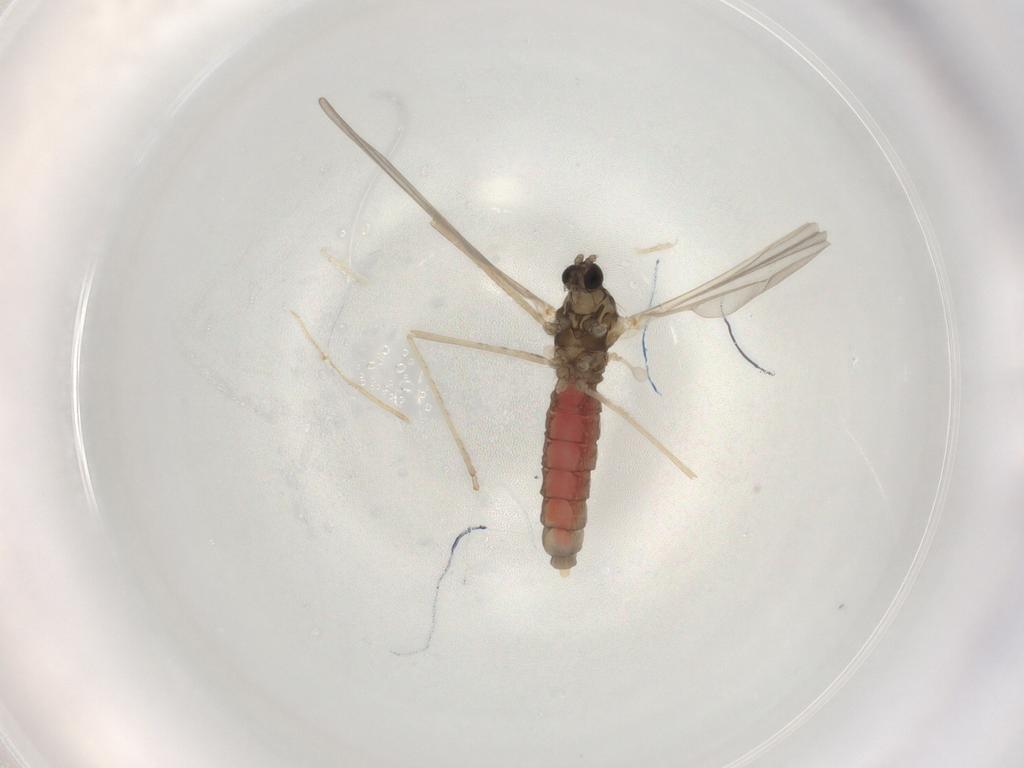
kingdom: Animalia
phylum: Arthropoda
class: Insecta
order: Diptera
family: Cecidomyiidae
